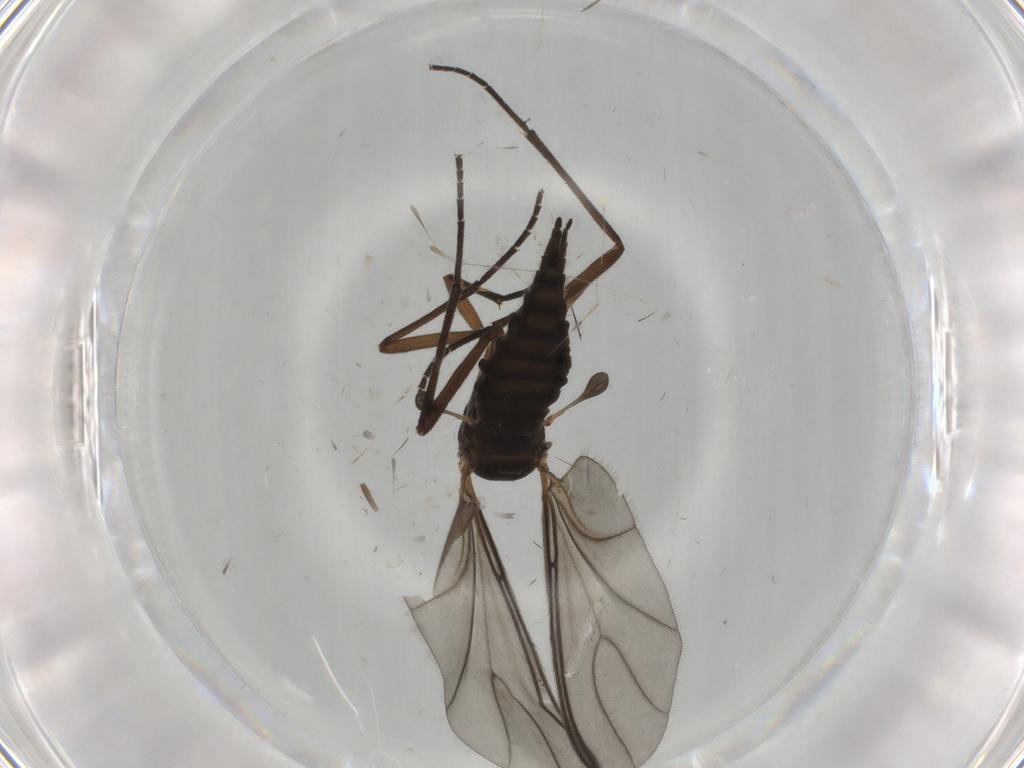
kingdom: Animalia
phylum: Arthropoda
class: Insecta
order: Diptera
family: Sciaridae
